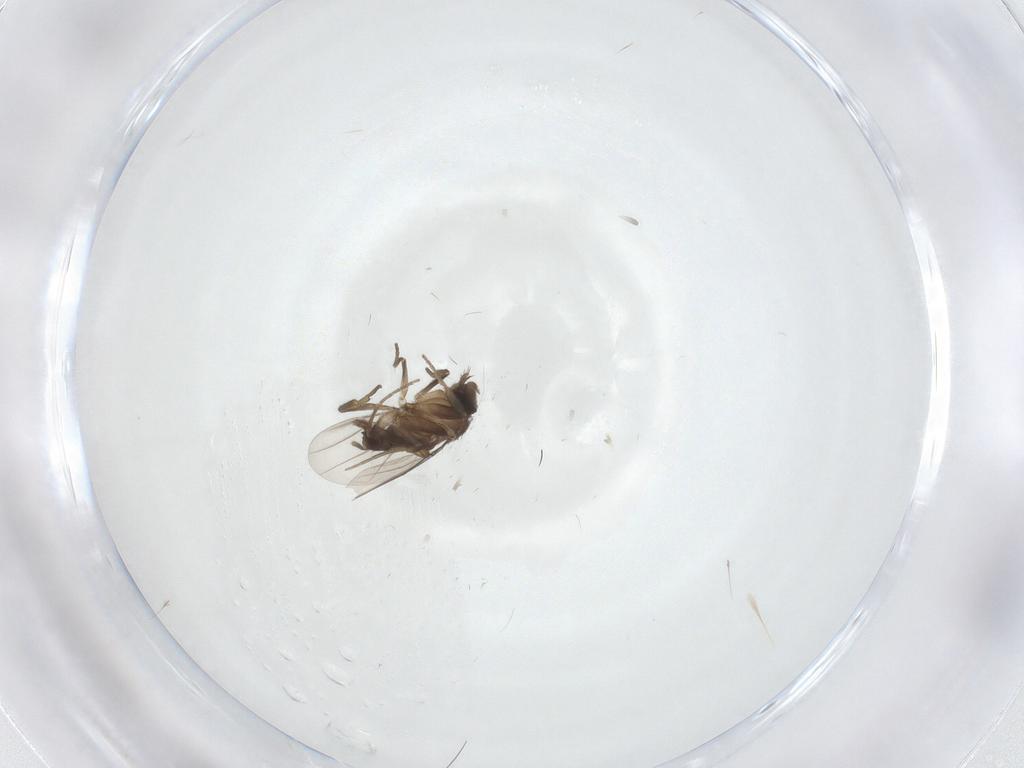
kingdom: Animalia
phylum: Arthropoda
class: Insecta
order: Diptera
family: Phoridae
